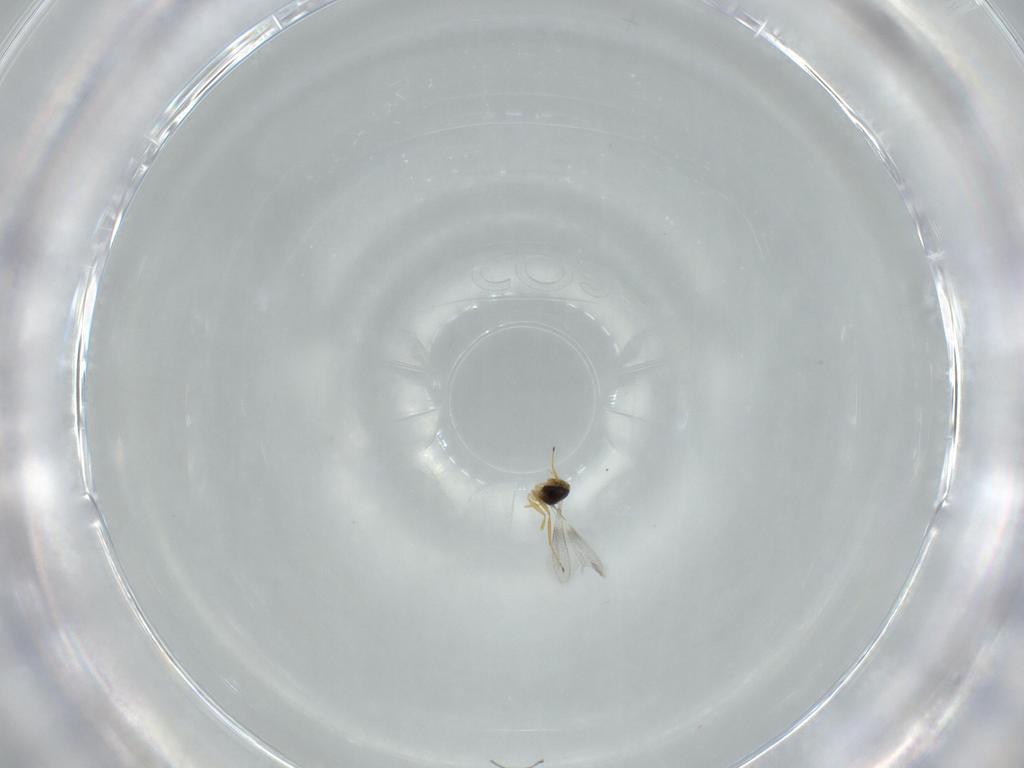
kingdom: Animalia
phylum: Arthropoda
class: Insecta
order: Hymenoptera
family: Mymaridae
